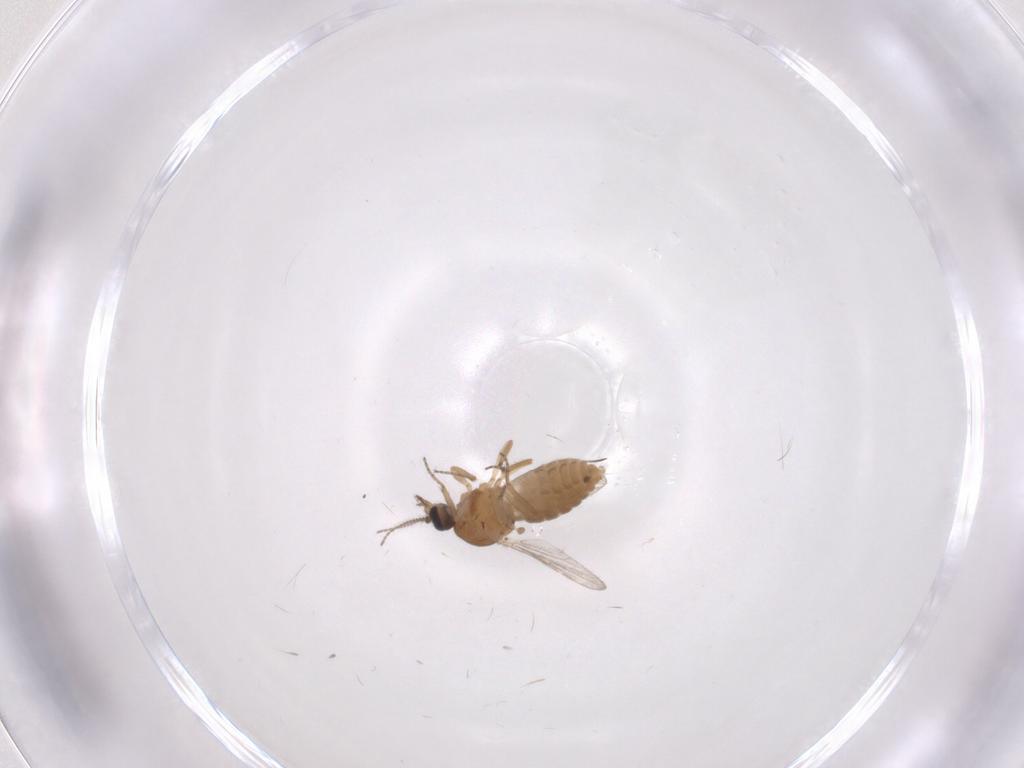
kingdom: Animalia
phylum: Arthropoda
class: Insecta
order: Diptera
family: Ceratopogonidae
